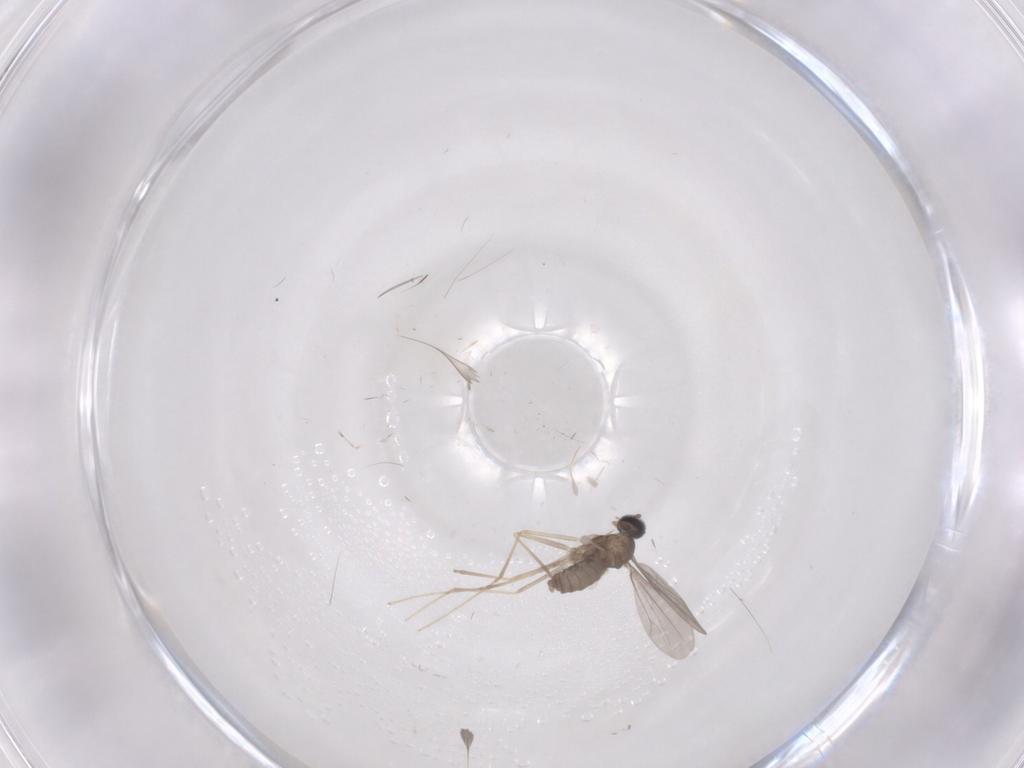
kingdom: Animalia
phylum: Arthropoda
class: Insecta
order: Diptera
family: Cecidomyiidae
